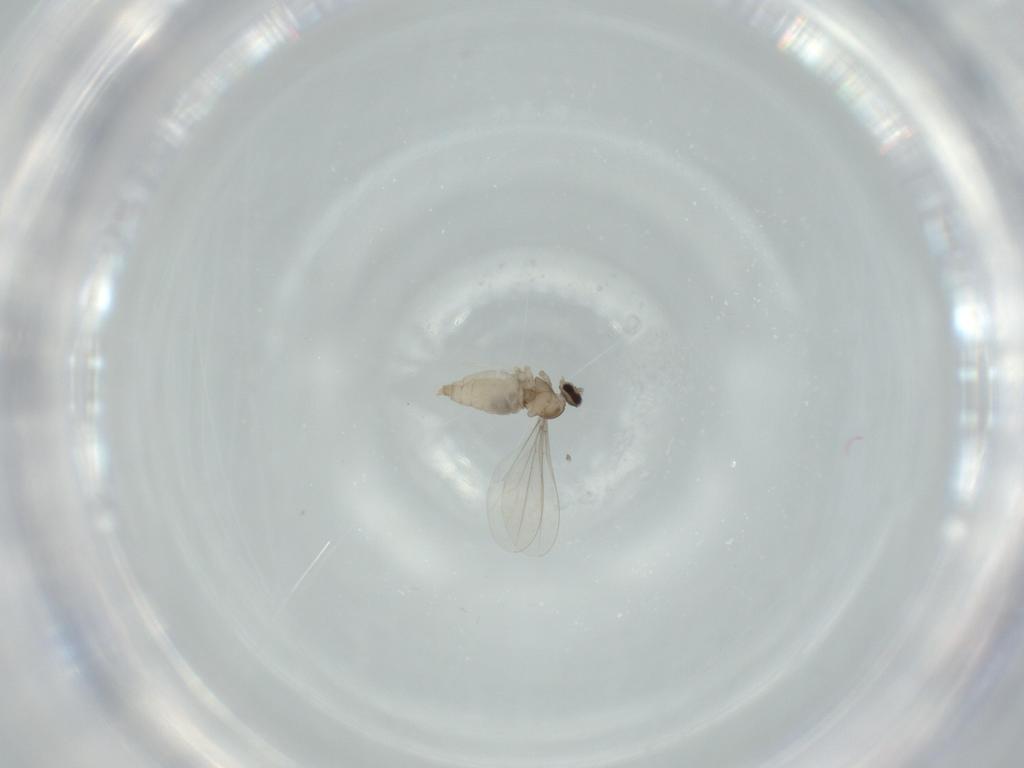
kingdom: Animalia
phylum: Arthropoda
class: Insecta
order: Diptera
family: Cecidomyiidae
